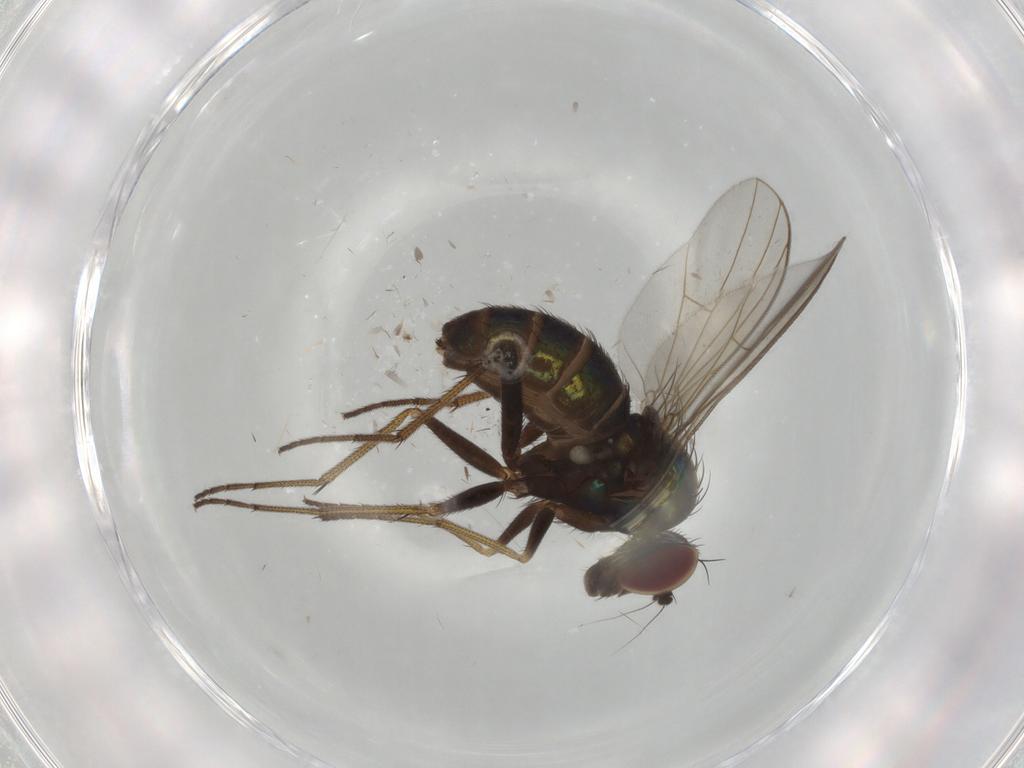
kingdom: Animalia
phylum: Arthropoda
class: Insecta
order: Diptera
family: Dolichopodidae
